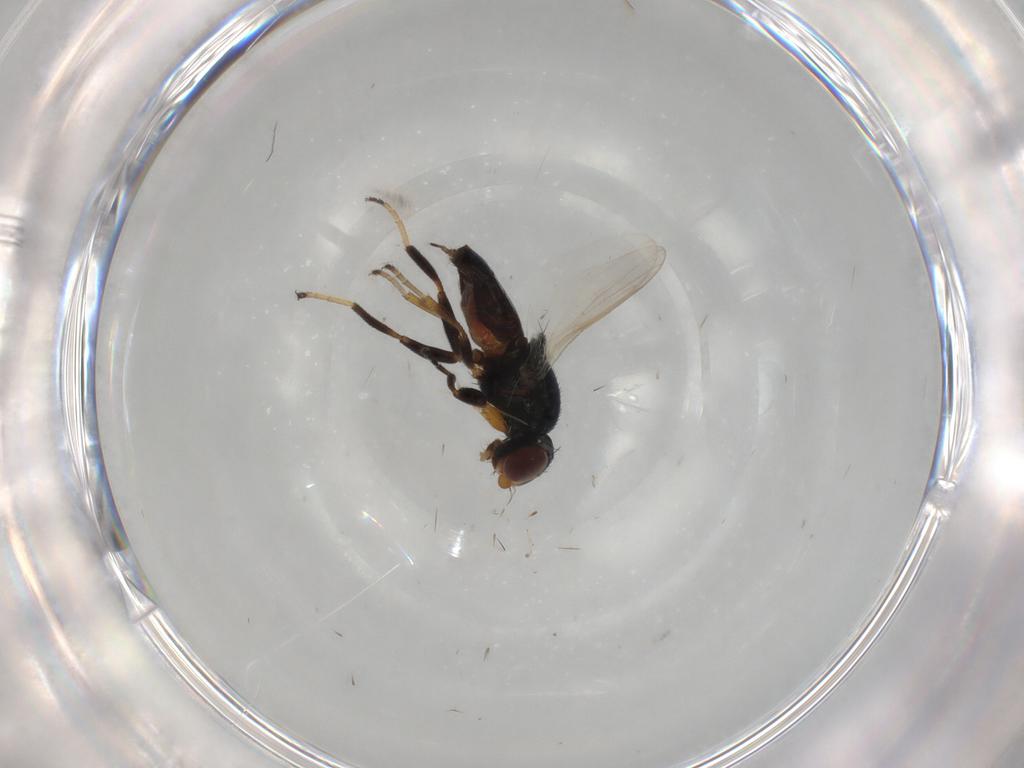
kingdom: Animalia
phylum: Arthropoda
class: Insecta
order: Diptera
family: Chloropidae
